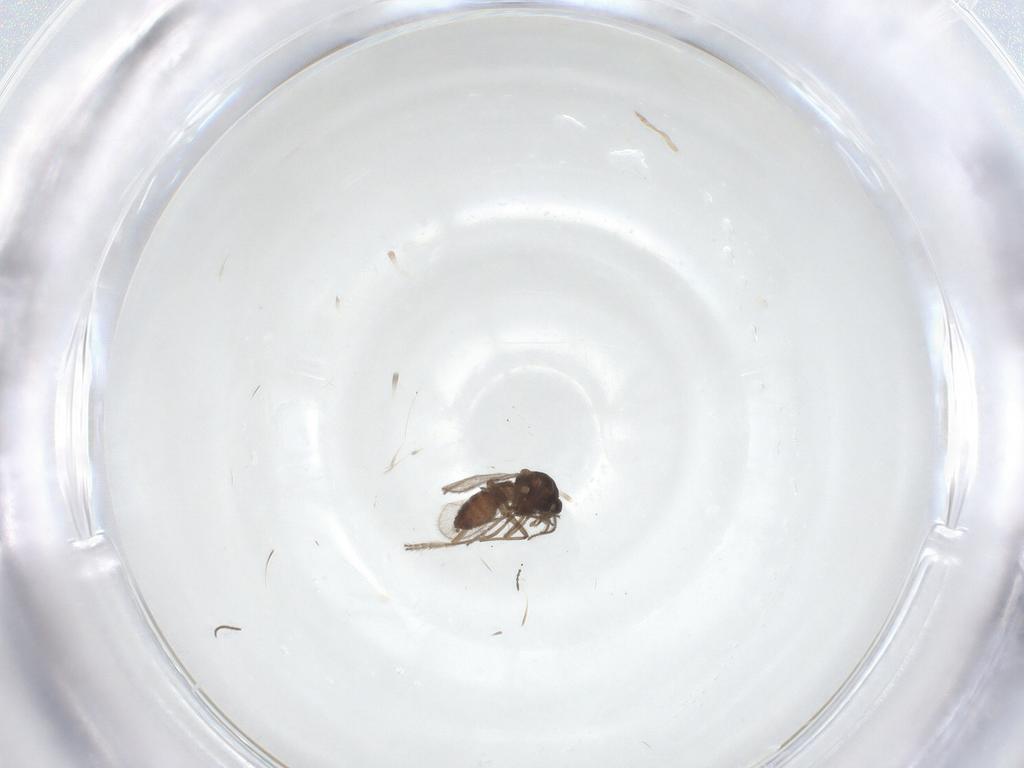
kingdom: Animalia
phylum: Arthropoda
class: Insecta
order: Diptera
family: Ceratopogonidae
